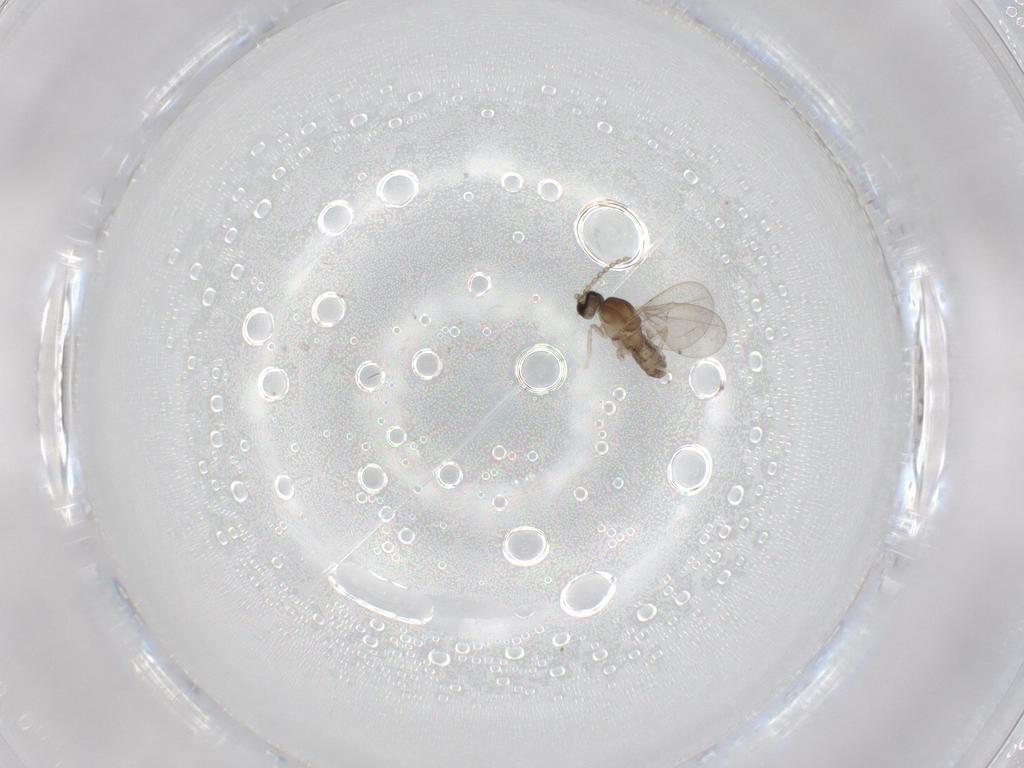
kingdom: Animalia
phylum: Arthropoda
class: Insecta
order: Diptera
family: Cecidomyiidae
